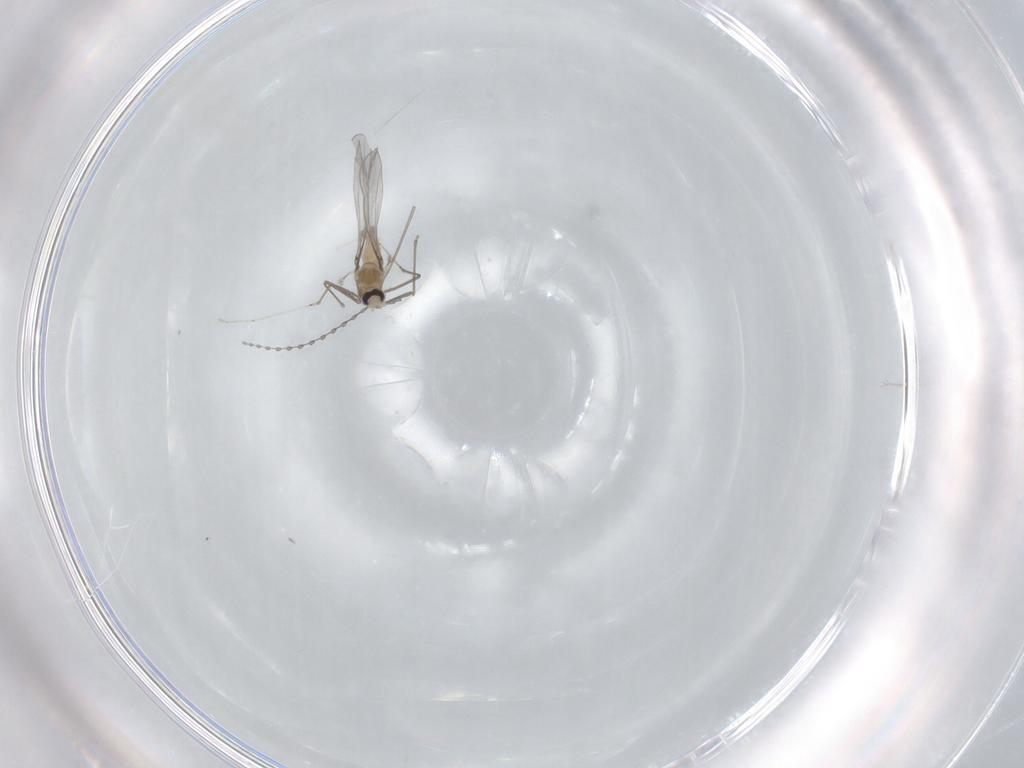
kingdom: Animalia
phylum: Arthropoda
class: Insecta
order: Diptera
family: Cecidomyiidae
